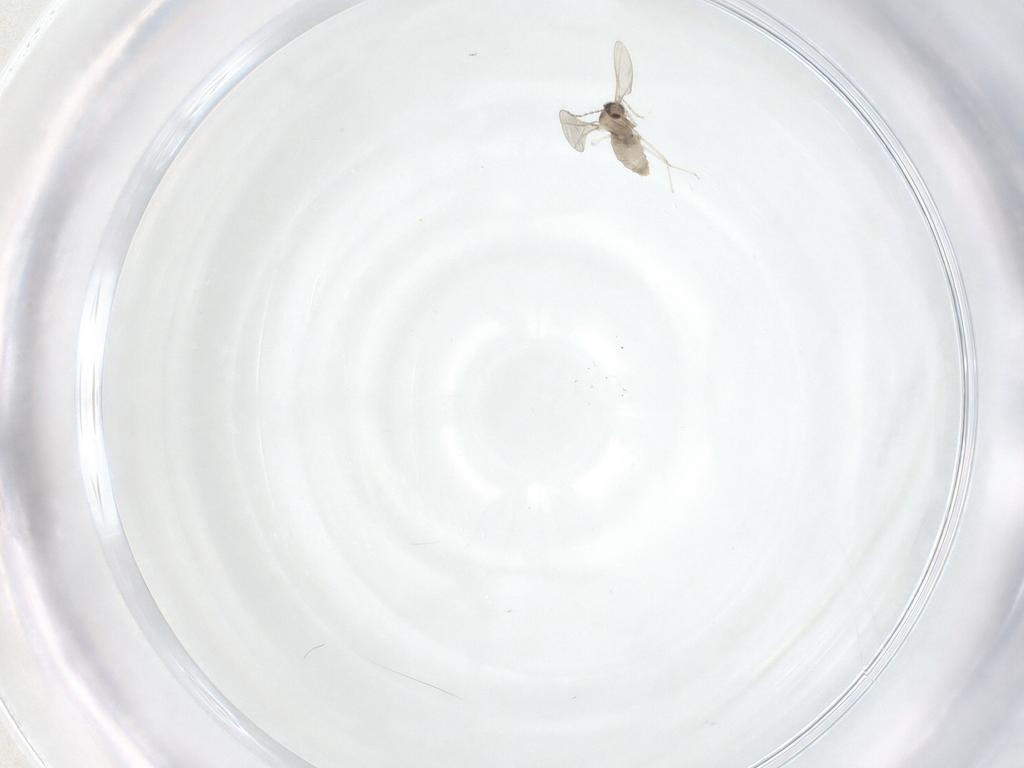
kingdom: Animalia
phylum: Arthropoda
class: Insecta
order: Diptera
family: Cecidomyiidae
